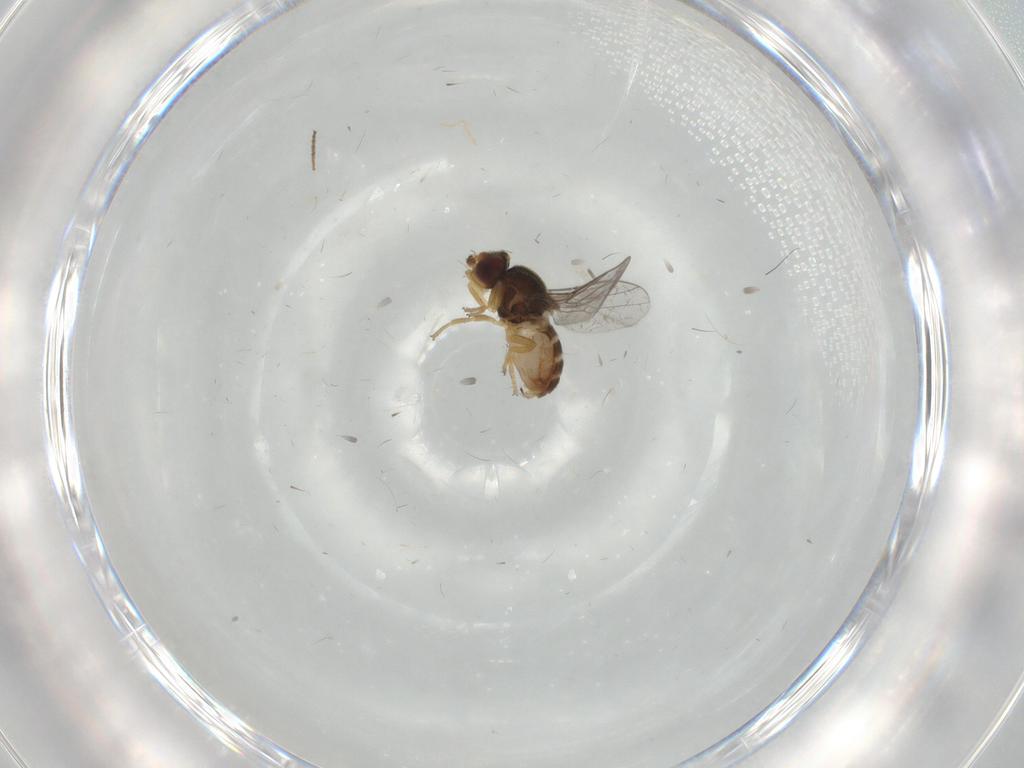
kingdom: Animalia
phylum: Arthropoda
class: Insecta
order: Diptera
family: Chloropidae
